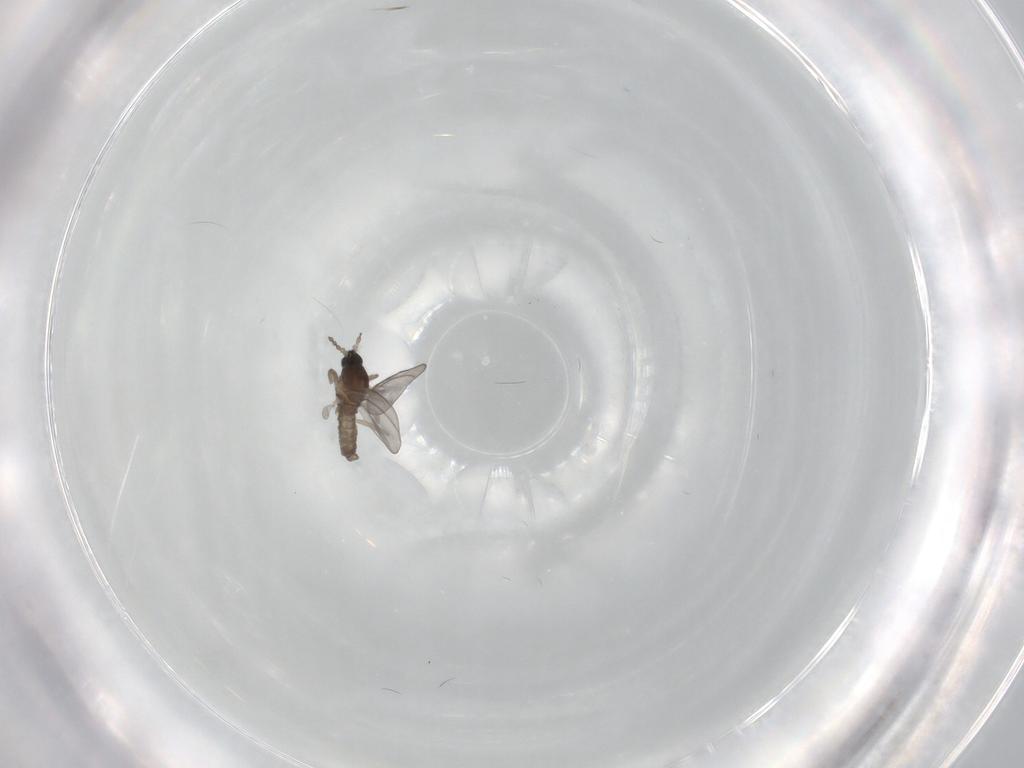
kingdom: Animalia
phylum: Arthropoda
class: Insecta
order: Diptera
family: Cecidomyiidae
